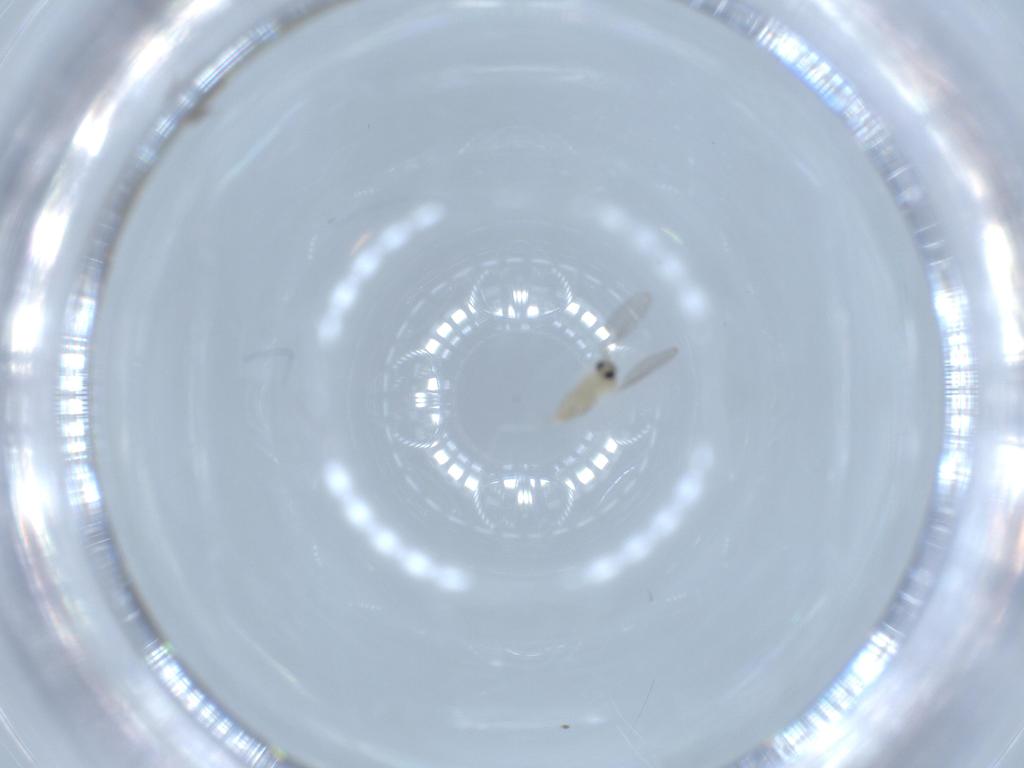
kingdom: Animalia
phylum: Arthropoda
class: Insecta
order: Diptera
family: Cecidomyiidae
